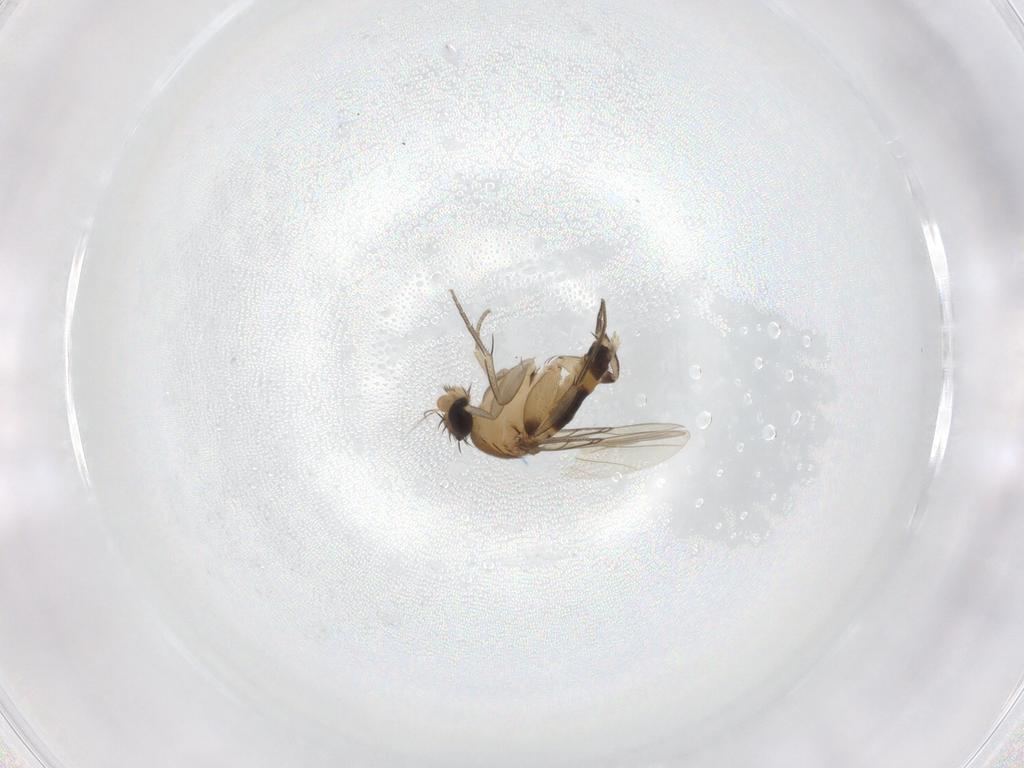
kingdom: Animalia
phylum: Arthropoda
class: Insecta
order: Diptera
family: Phoridae
